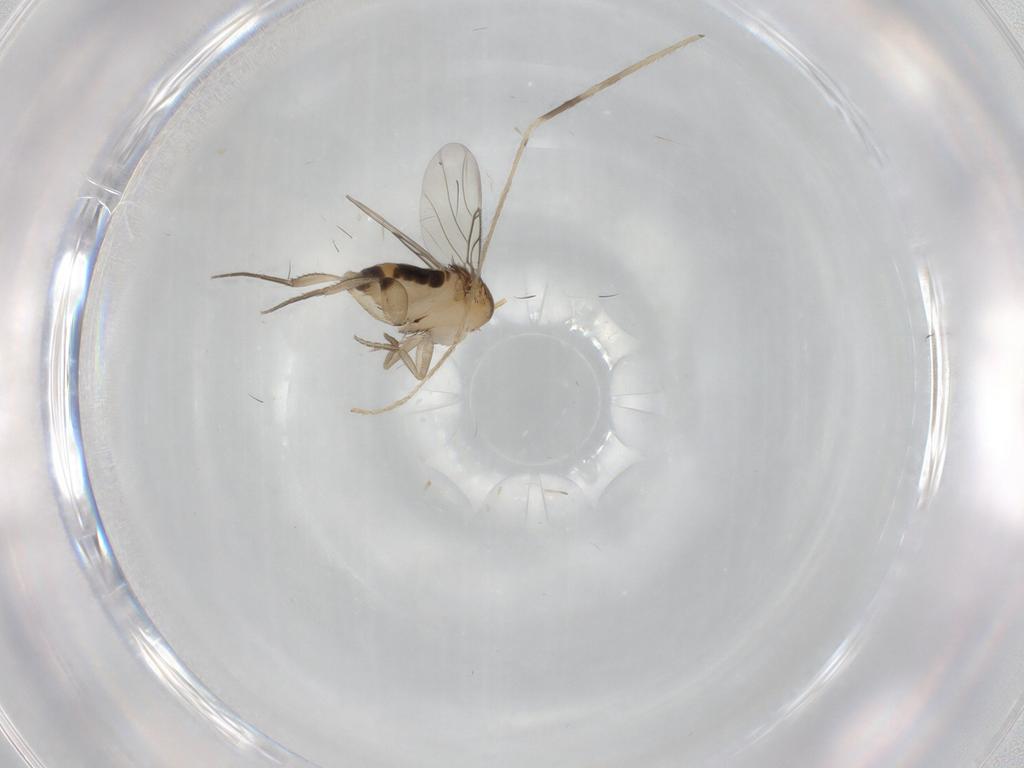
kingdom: Animalia
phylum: Arthropoda
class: Insecta
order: Diptera
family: Phoridae
